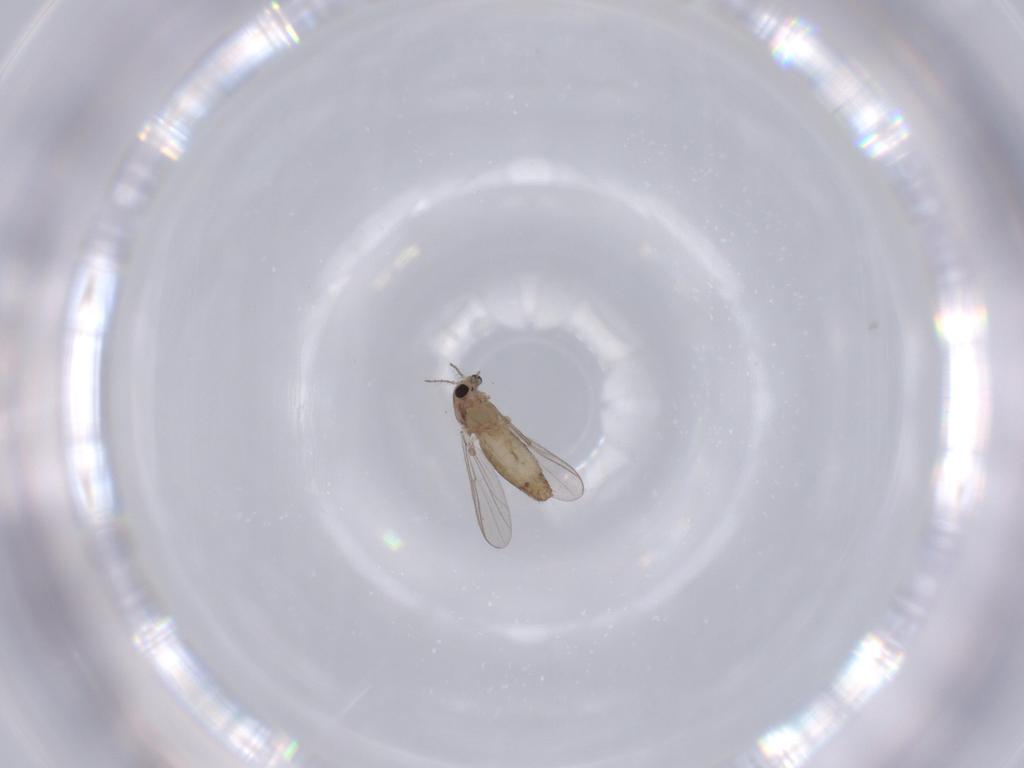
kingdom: Animalia
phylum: Arthropoda
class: Insecta
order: Diptera
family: Chironomidae
